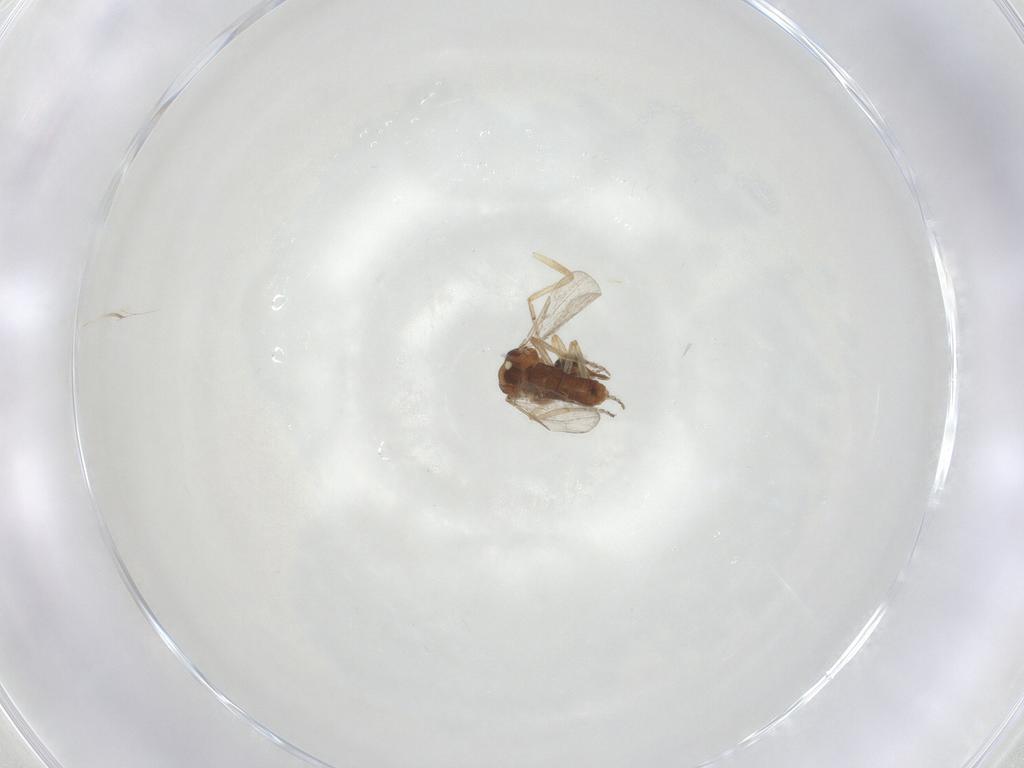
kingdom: Animalia
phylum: Arthropoda
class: Insecta
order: Diptera
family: Ceratopogonidae
